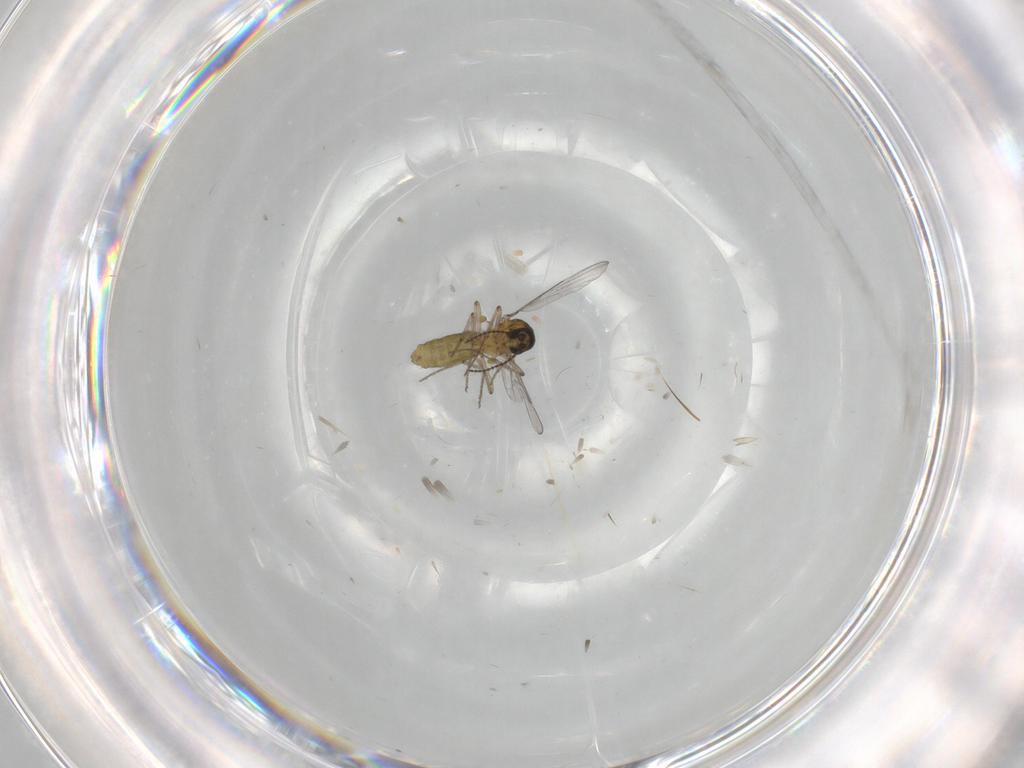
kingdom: Animalia
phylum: Arthropoda
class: Insecta
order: Diptera
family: Ceratopogonidae
